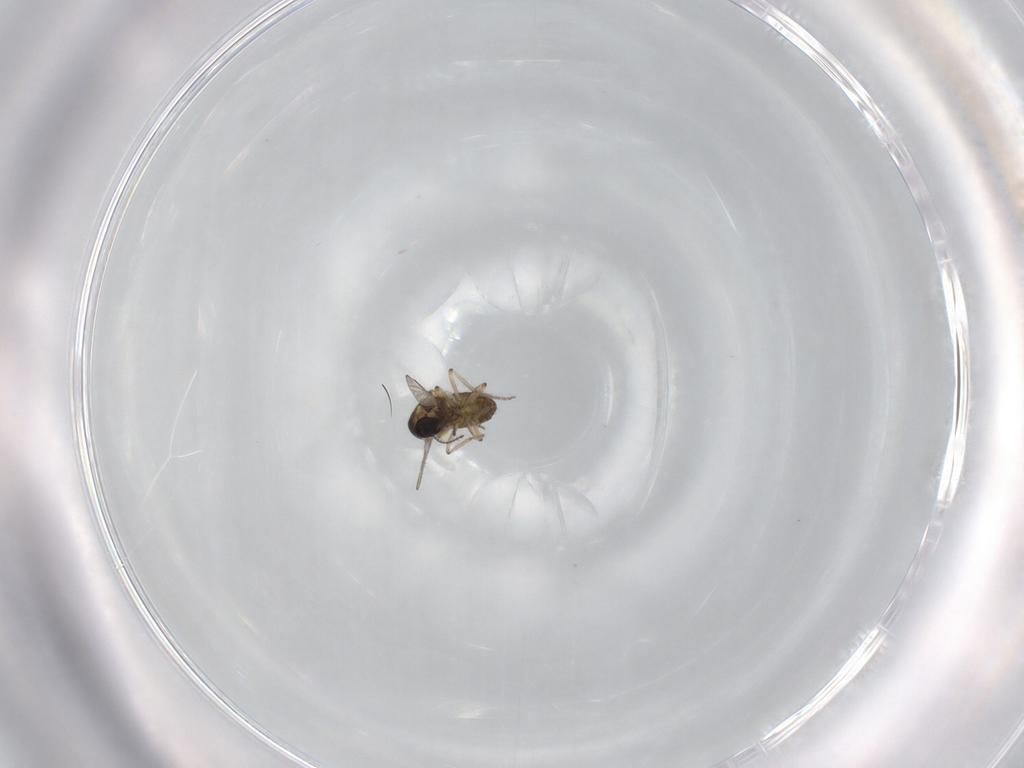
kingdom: Animalia
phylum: Arthropoda
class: Insecta
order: Diptera
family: Ceratopogonidae
